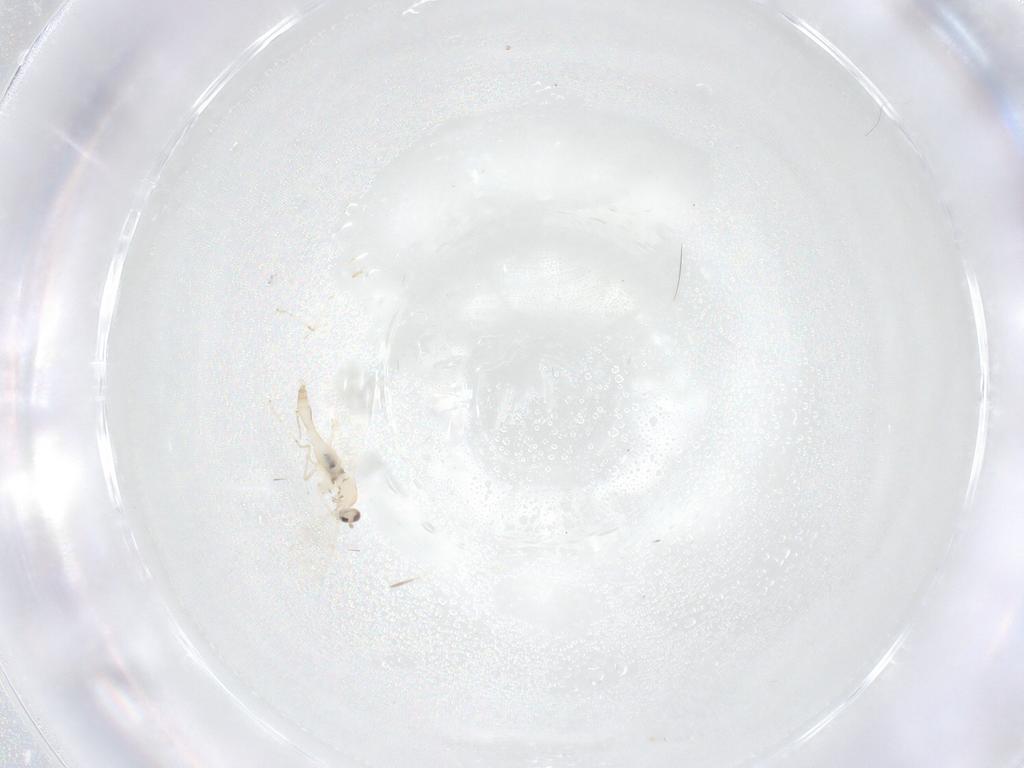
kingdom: Animalia
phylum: Arthropoda
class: Insecta
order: Diptera
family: Cecidomyiidae
